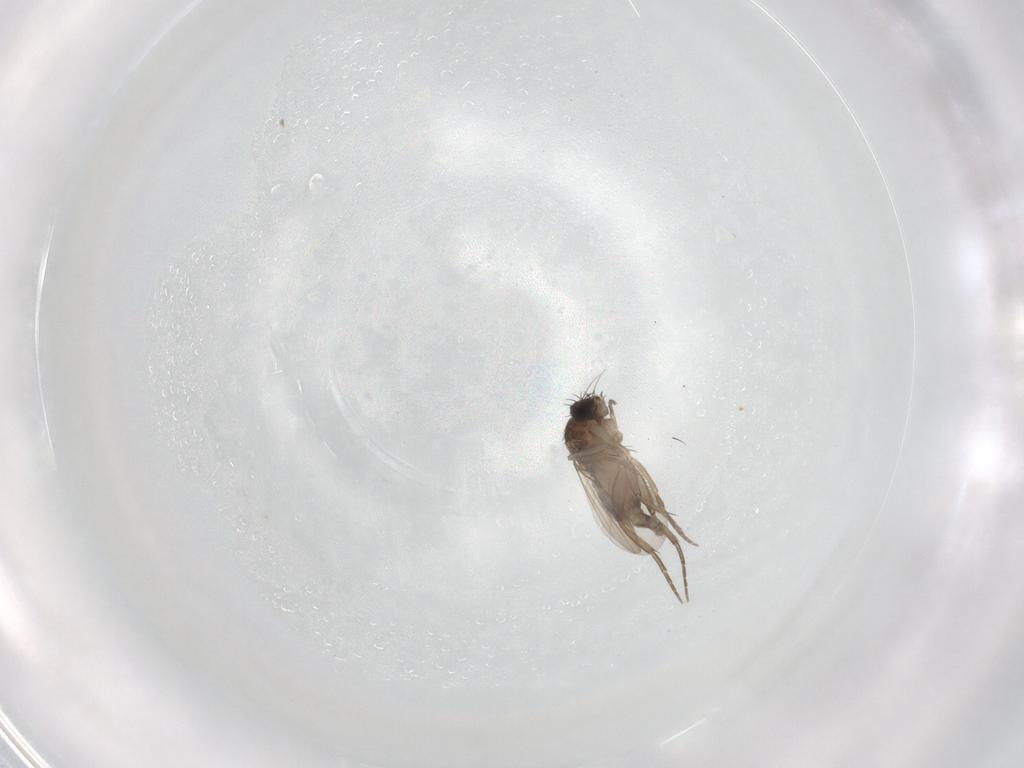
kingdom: Animalia
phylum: Arthropoda
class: Insecta
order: Diptera
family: Phoridae
